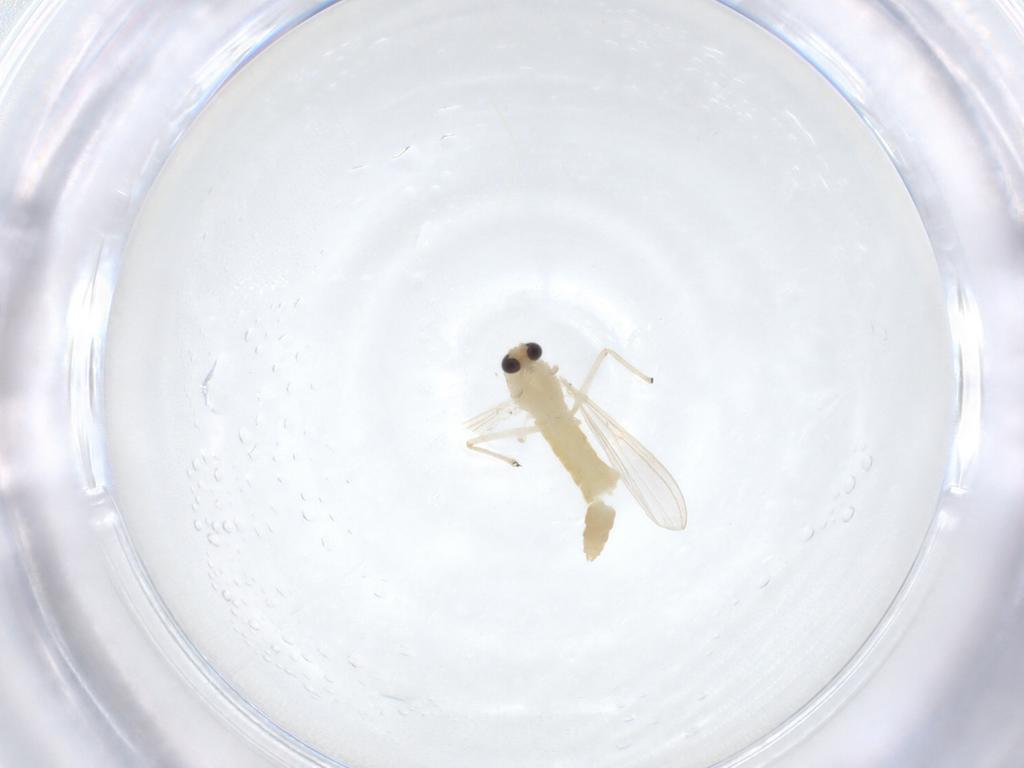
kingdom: Animalia
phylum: Arthropoda
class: Insecta
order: Diptera
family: Chironomidae
